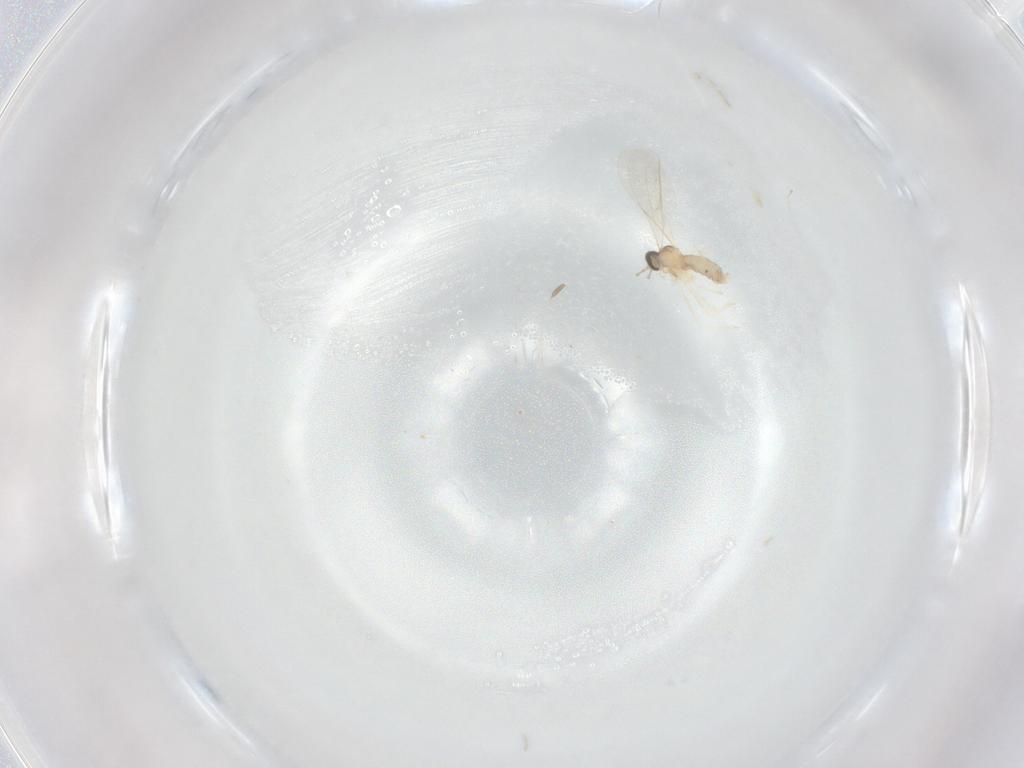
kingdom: Animalia
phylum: Arthropoda
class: Insecta
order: Diptera
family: Cecidomyiidae
